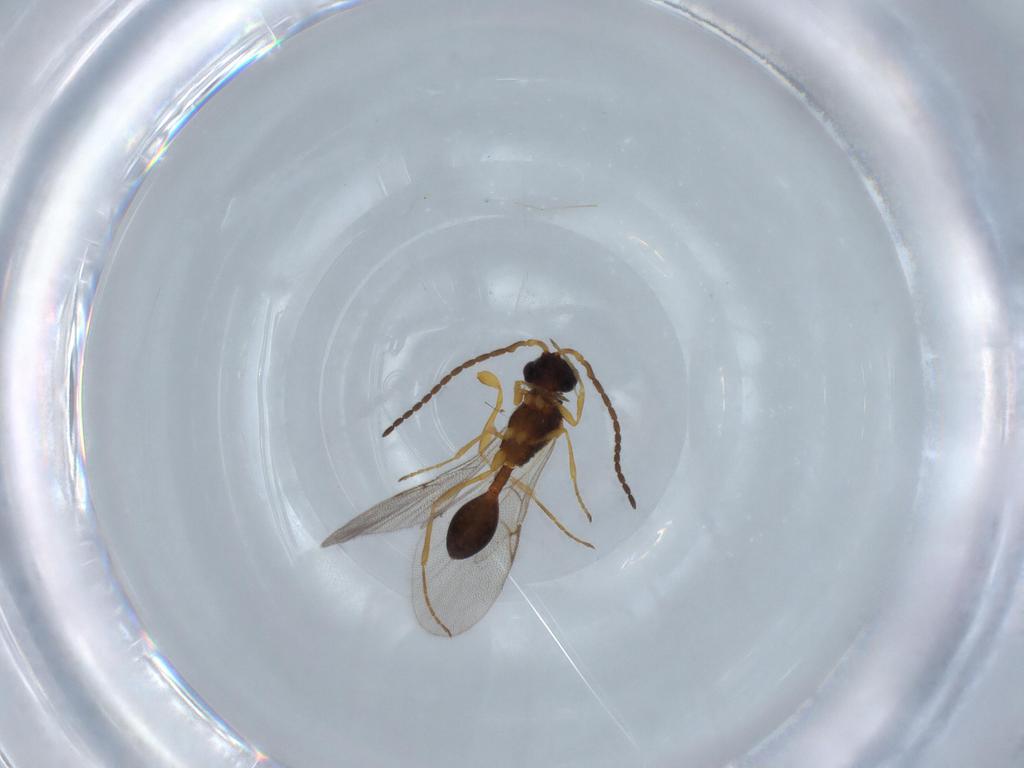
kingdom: Animalia
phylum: Arthropoda
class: Insecta
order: Hymenoptera
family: Diapriidae
